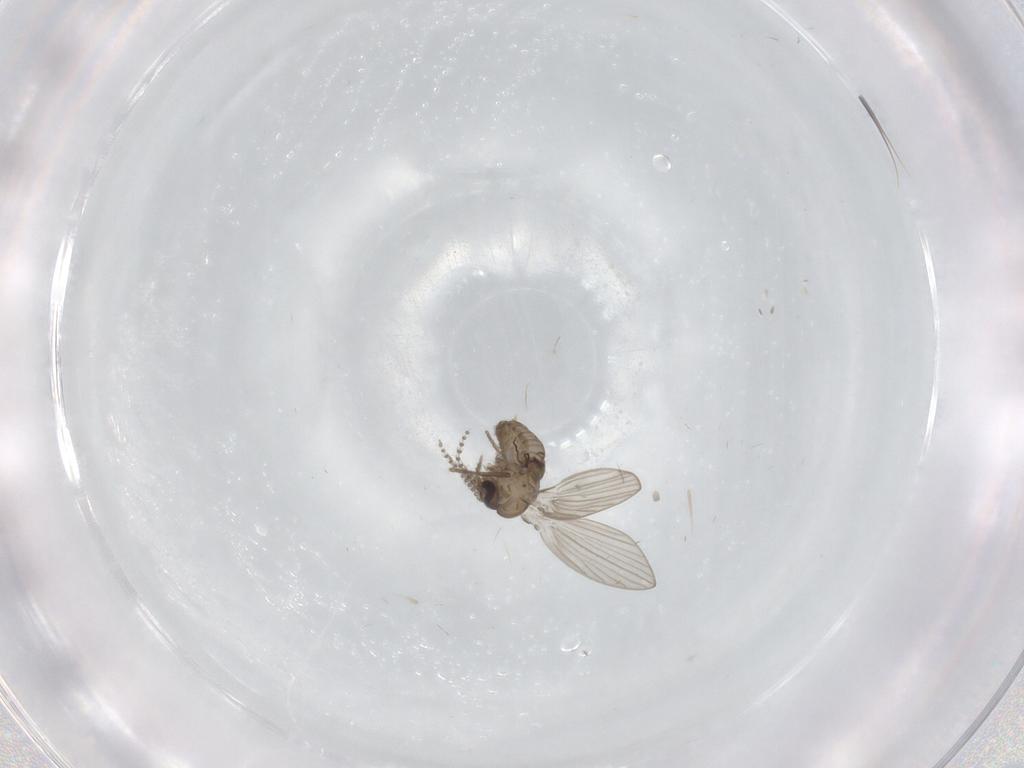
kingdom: Animalia
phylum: Arthropoda
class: Insecta
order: Diptera
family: Psychodidae
